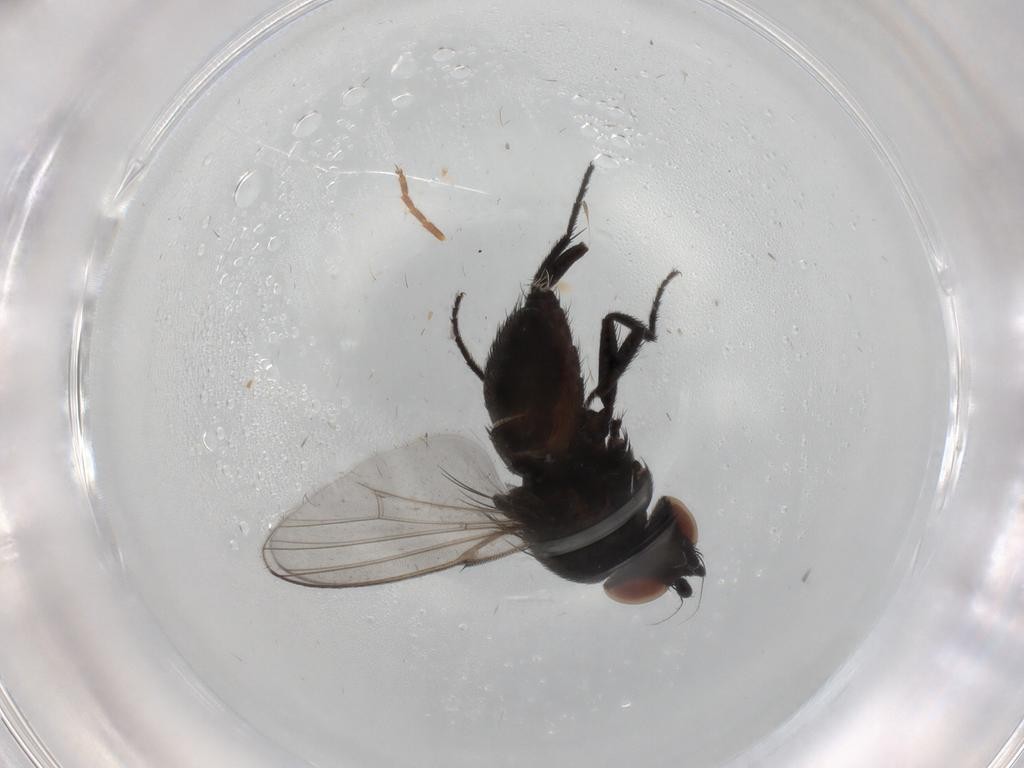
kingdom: Animalia
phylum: Arthropoda
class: Insecta
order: Diptera
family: Milichiidae
